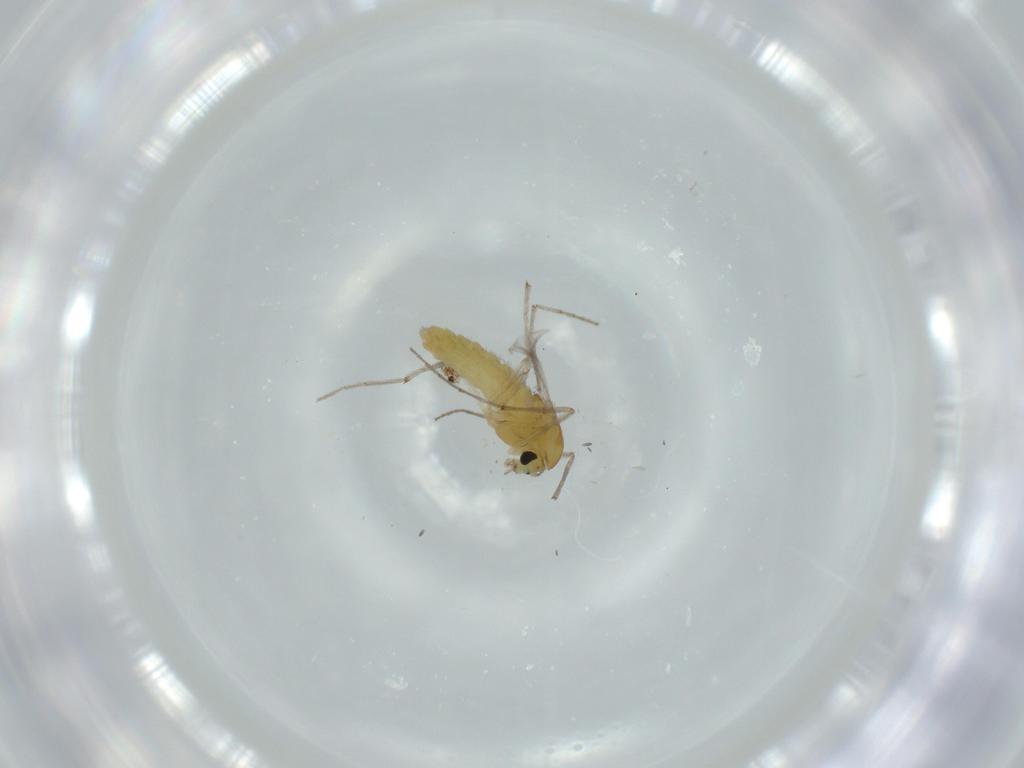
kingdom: Animalia
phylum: Arthropoda
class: Insecta
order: Diptera
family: Chironomidae
